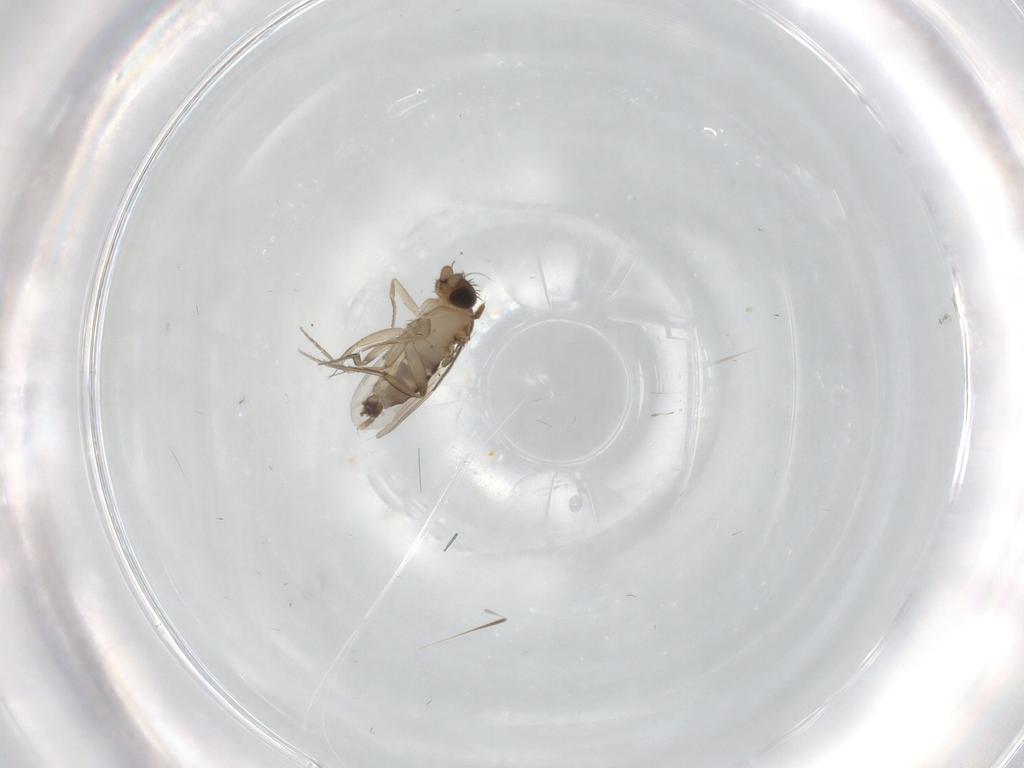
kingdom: Animalia
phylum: Arthropoda
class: Insecta
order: Diptera
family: Phoridae
